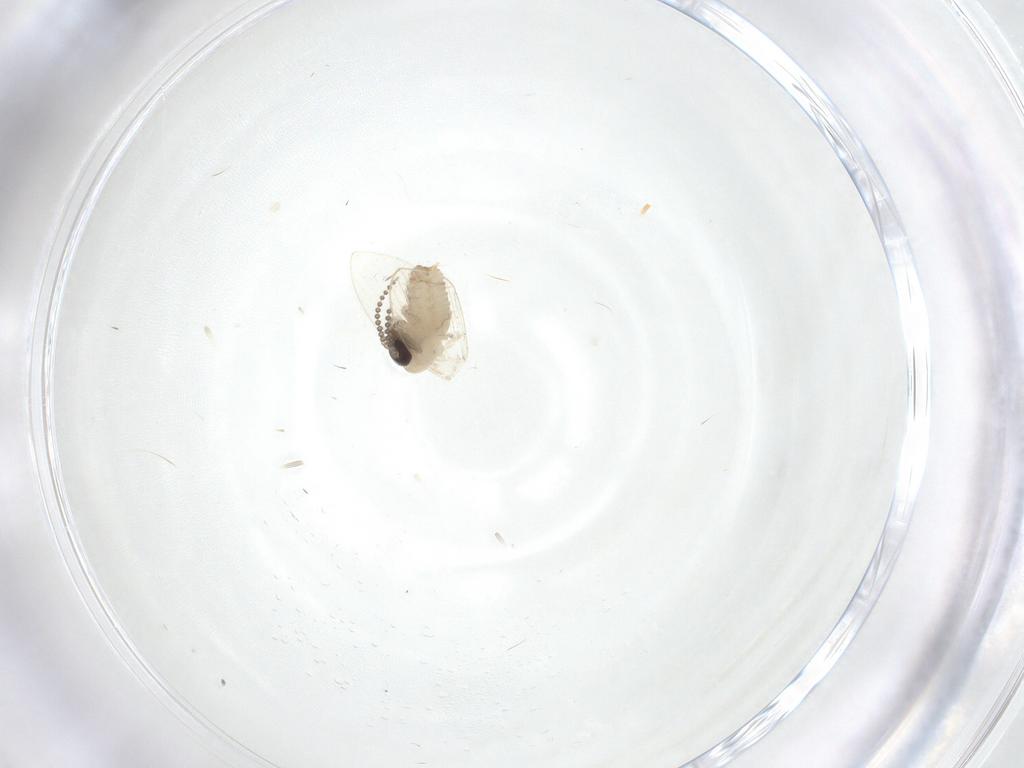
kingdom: Animalia
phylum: Arthropoda
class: Insecta
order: Diptera
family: Psychodidae
